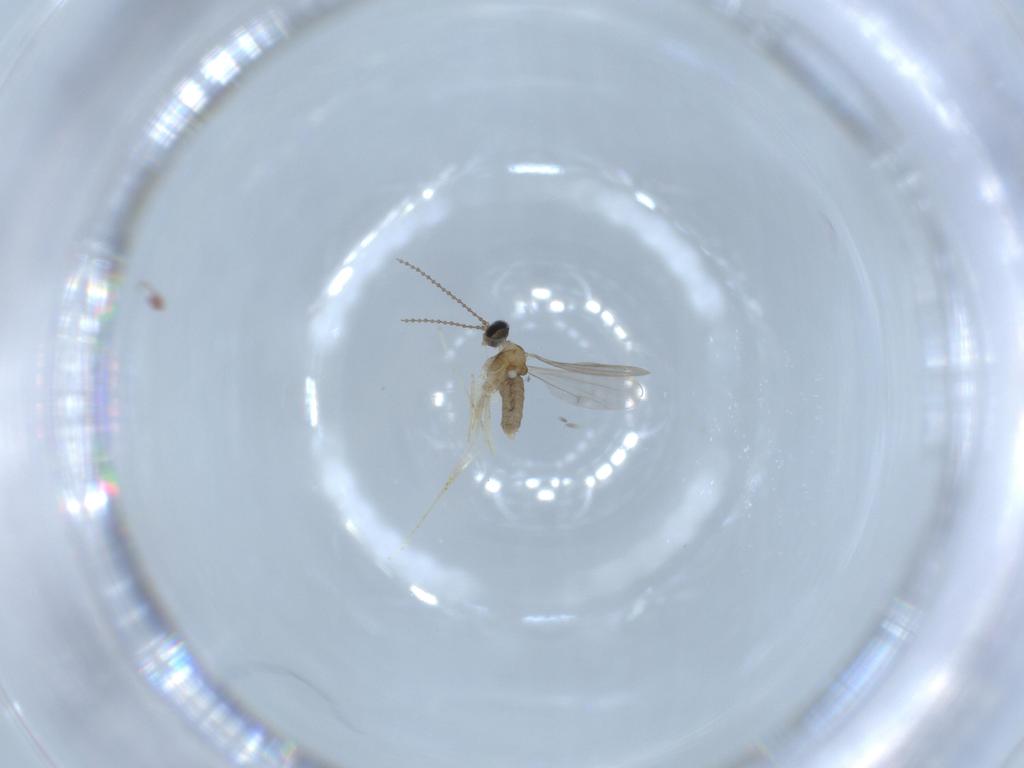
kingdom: Animalia
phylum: Arthropoda
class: Insecta
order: Diptera
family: Cecidomyiidae
